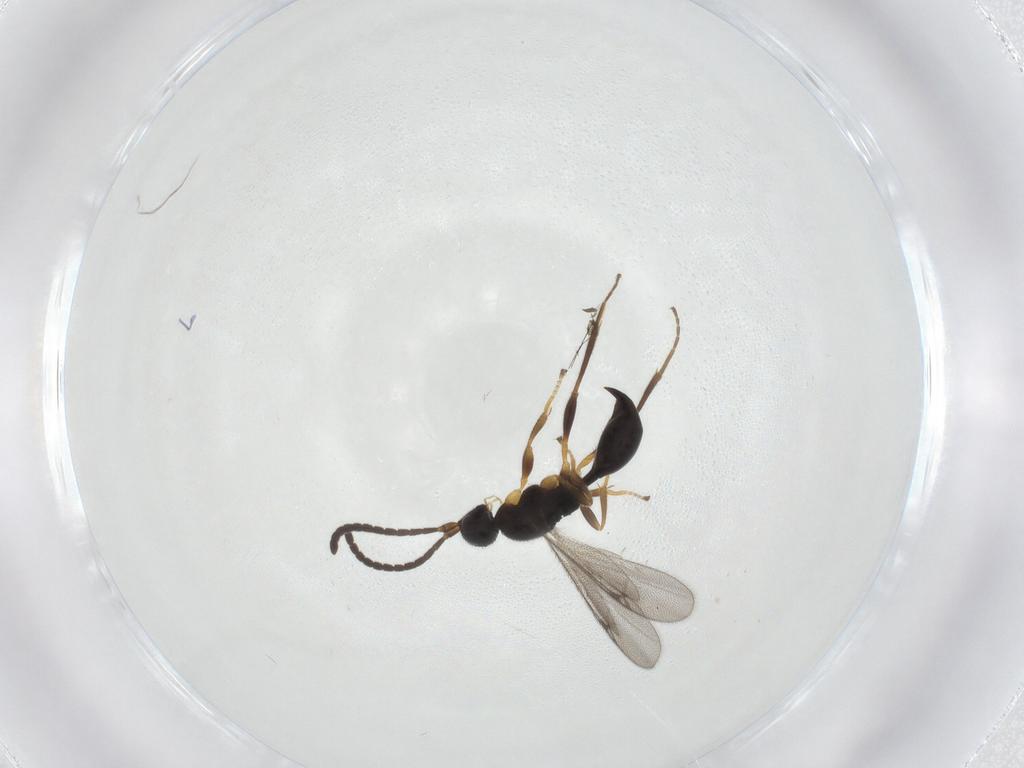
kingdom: Animalia
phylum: Arthropoda
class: Insecta
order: Hymenoptera
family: Proctotrupidae
